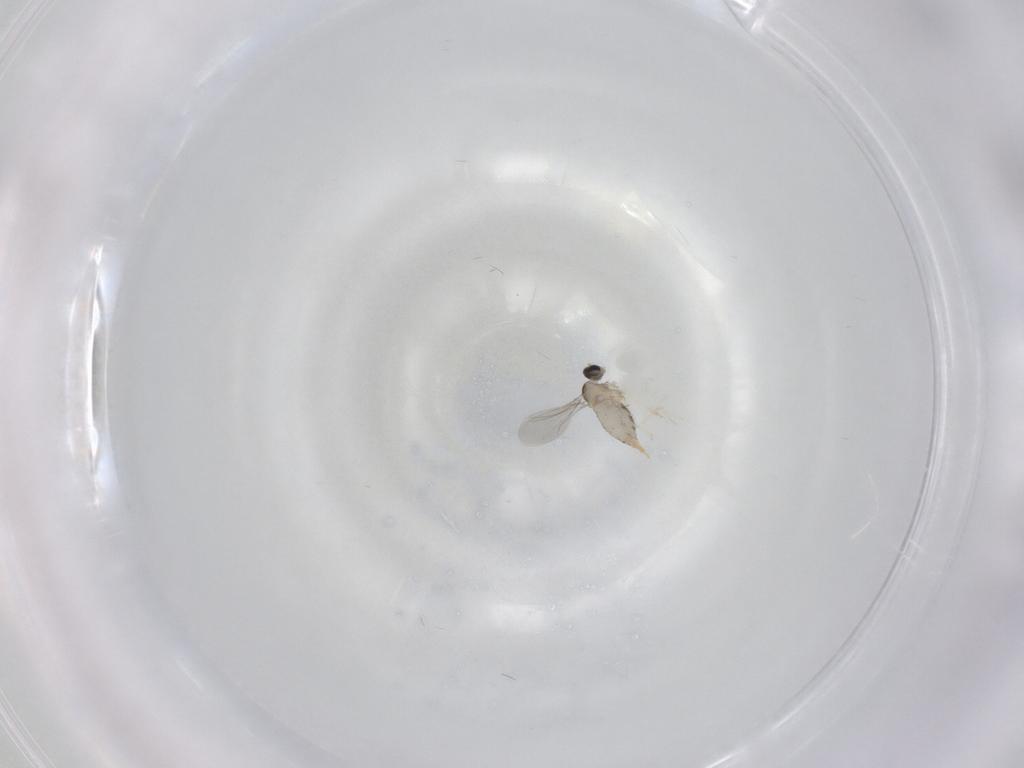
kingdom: Animalia
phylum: Arthropoda
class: Insecta
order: Diptera
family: Cecidomyiidae
